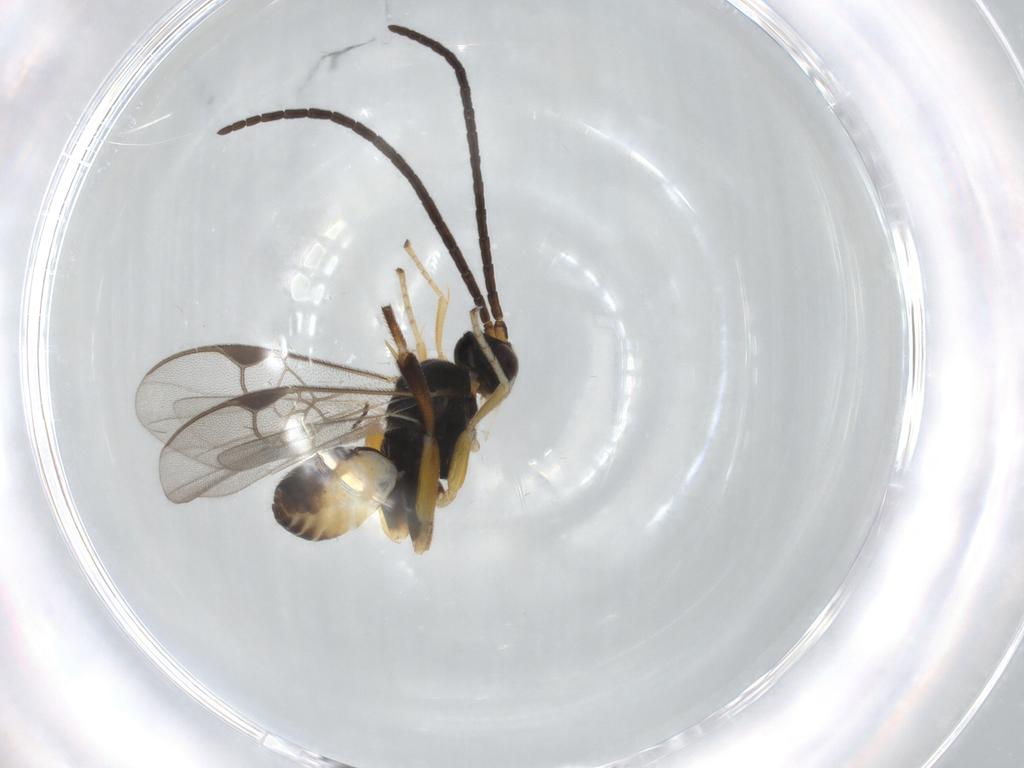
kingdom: Animalia
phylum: Arthropoda
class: Insecta
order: Hymenoptera
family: Braconidae
